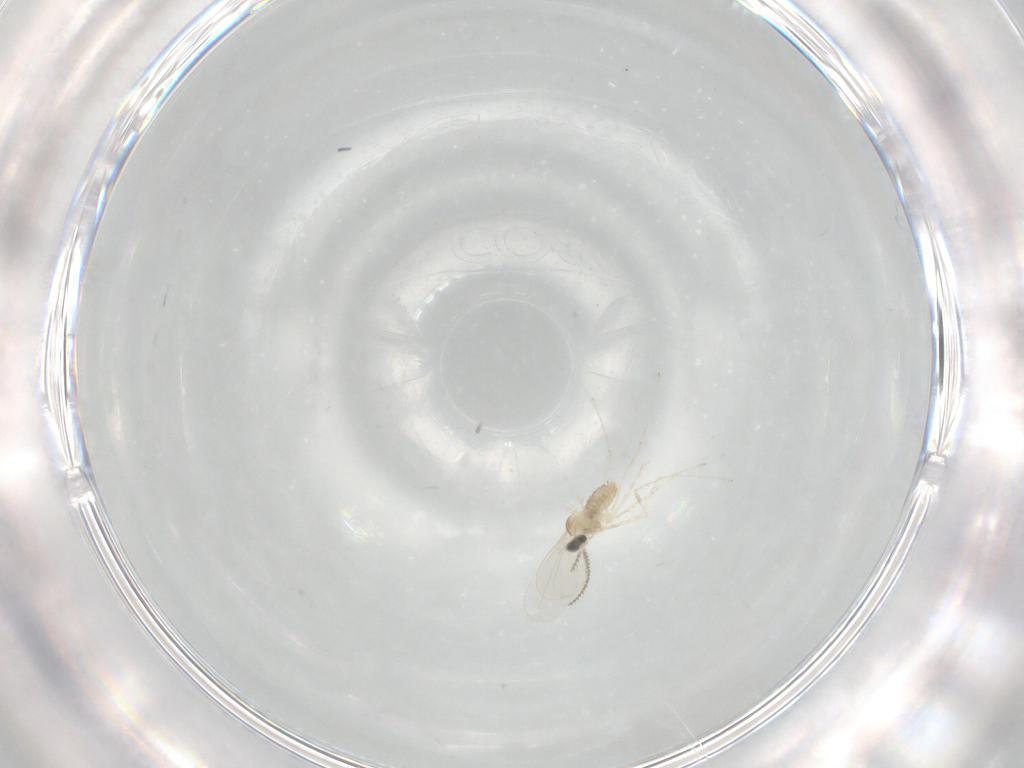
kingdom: Animalia
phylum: Arthropoda
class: Insecta
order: Diptera
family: Cecidomyiidae
